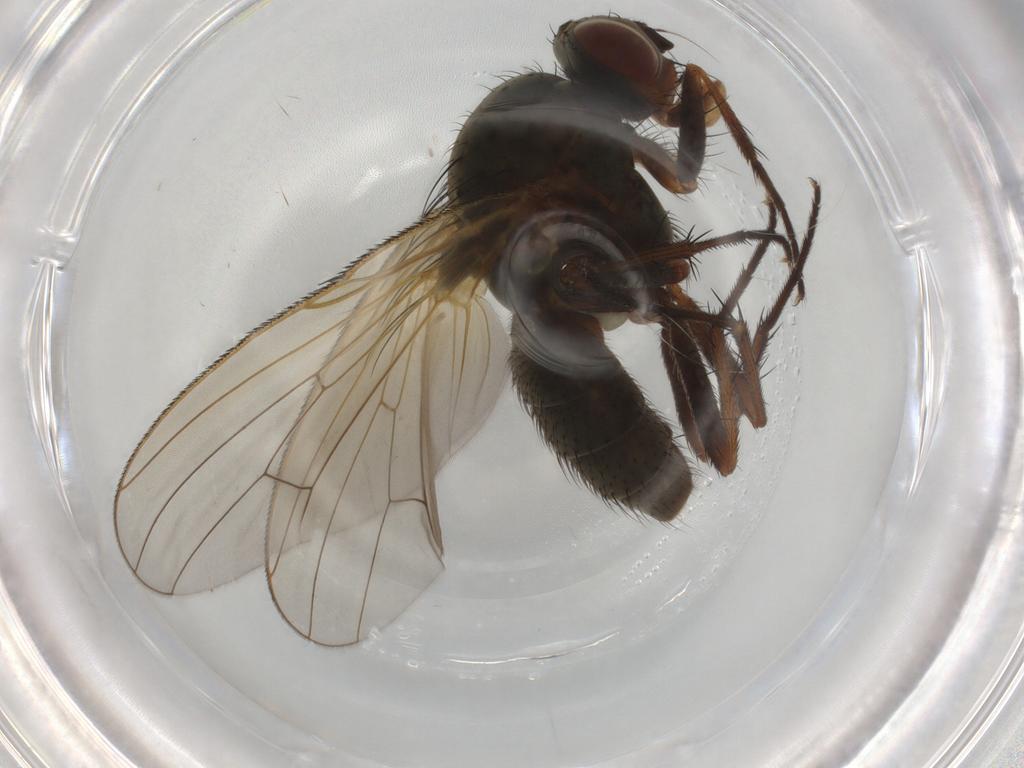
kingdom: Animalia
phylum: Arthropoda
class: Insecta
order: Diptera
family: Anthomyiidae
